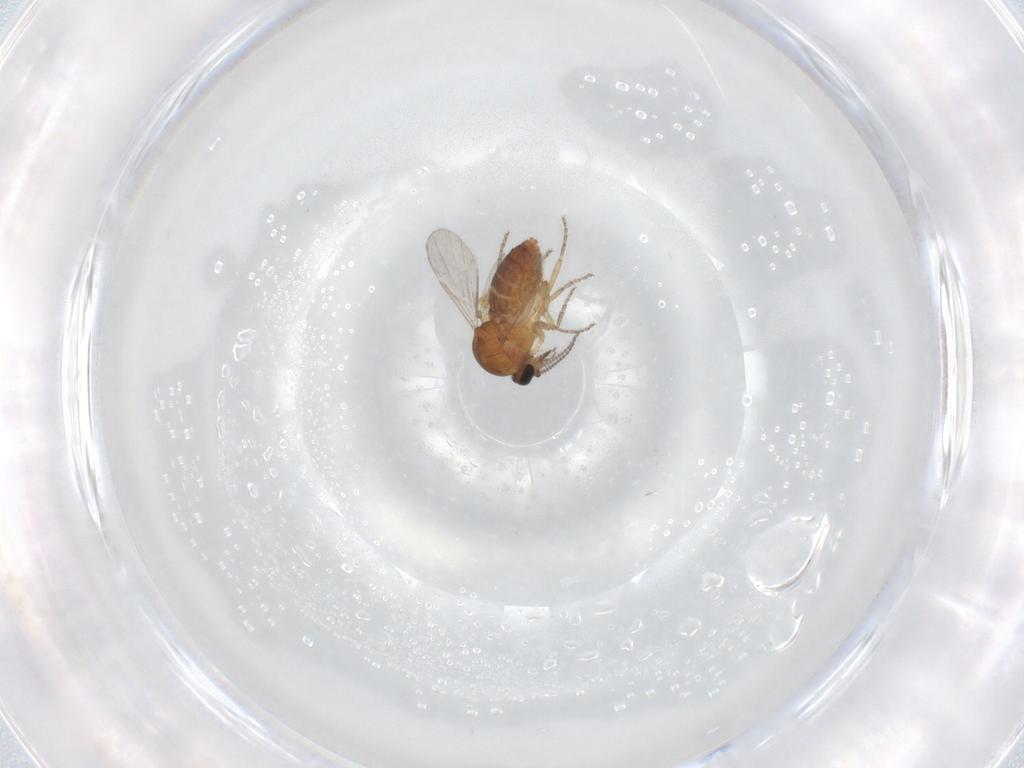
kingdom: Animalia
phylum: Arthropoda
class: Insecta
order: Diptera
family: Ceratopogonidae
